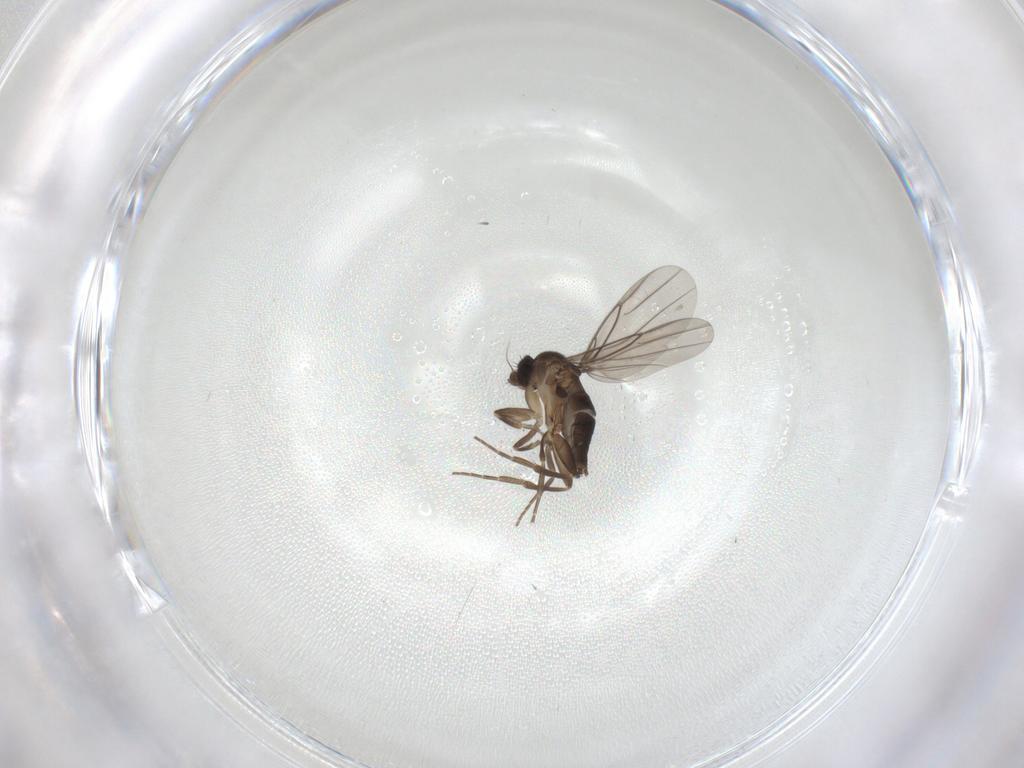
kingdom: Animalia
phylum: Arthropoda
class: Insecta
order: Diptera
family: Phoridae
